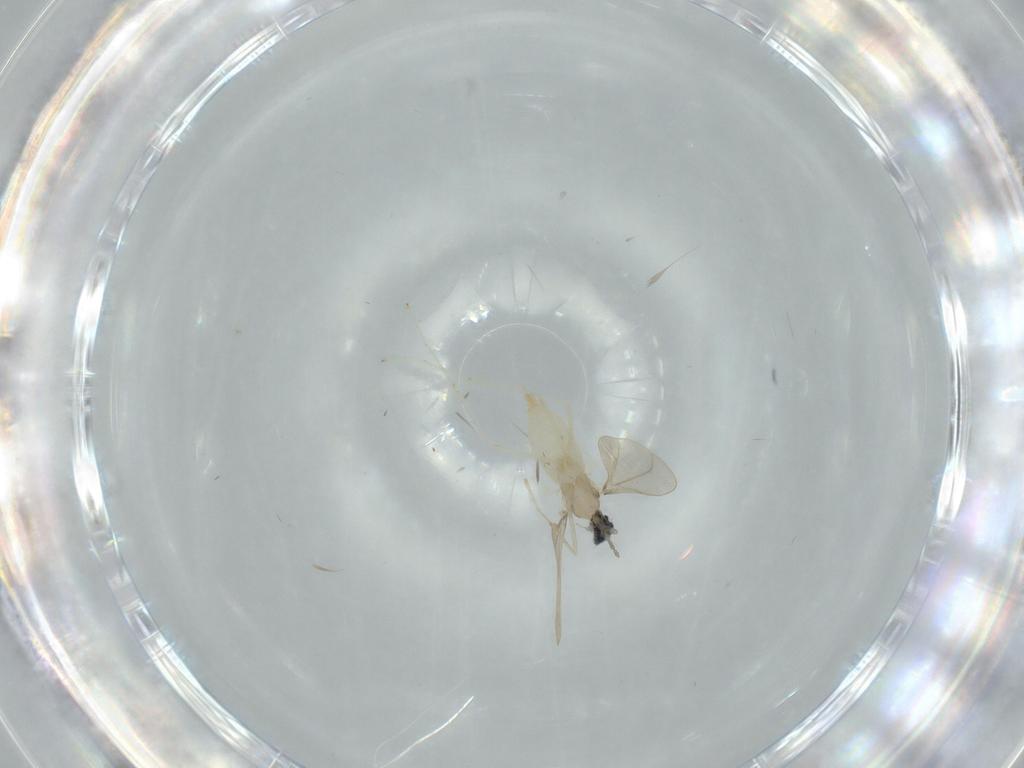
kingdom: Animalia
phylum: Arthropoda
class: Insecta
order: Diptera
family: Cecidomyiidae
